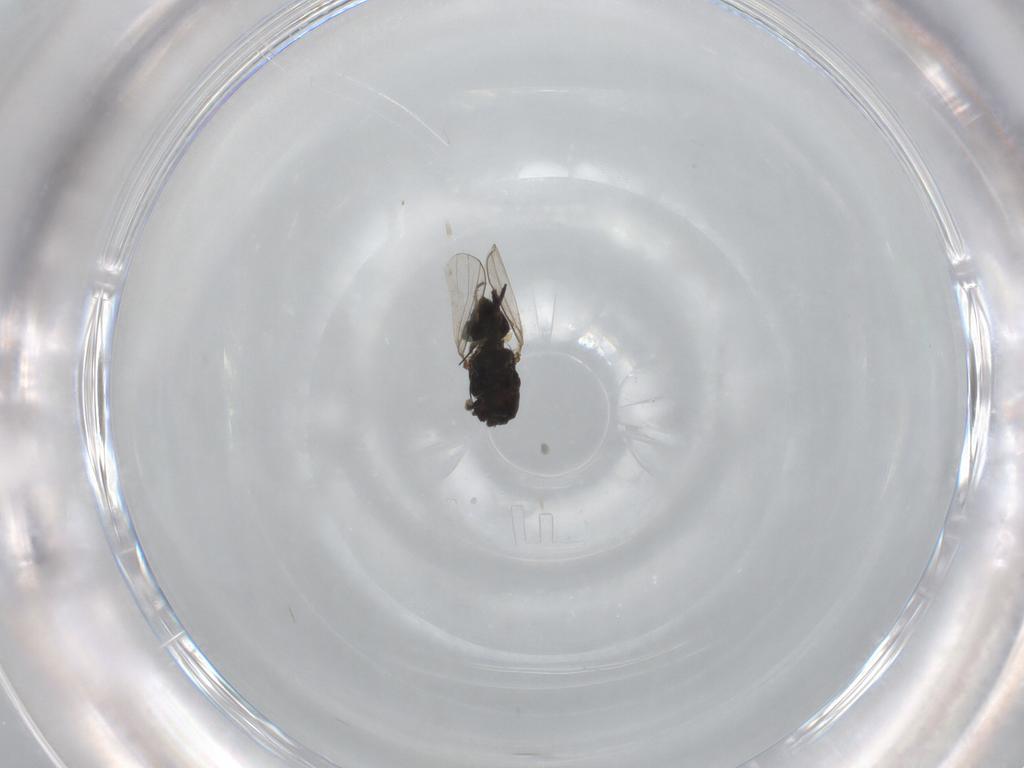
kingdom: Animalia
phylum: Arthropoda
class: Insecta
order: Diptera
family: Milichiidae
